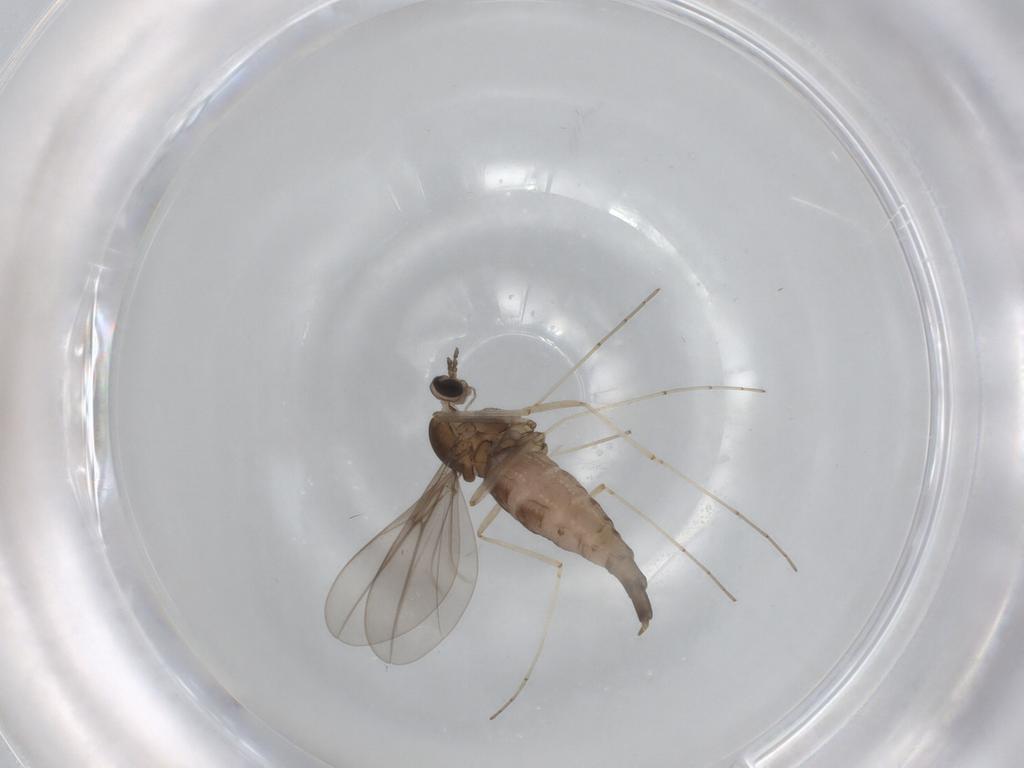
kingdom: Animalia
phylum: Arthropoda
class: Insecta
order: Diptera
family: Cecidomyiidae
